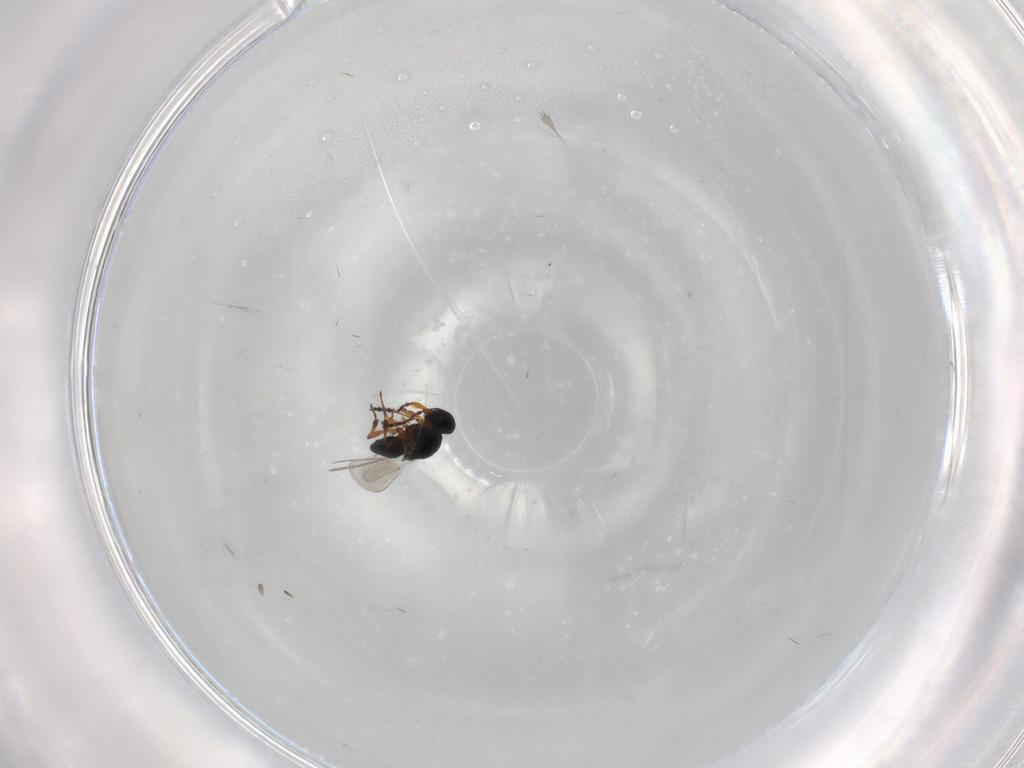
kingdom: Animalia
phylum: Arthropoda
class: Insecta
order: Hymenoptera
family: Platygastridae
